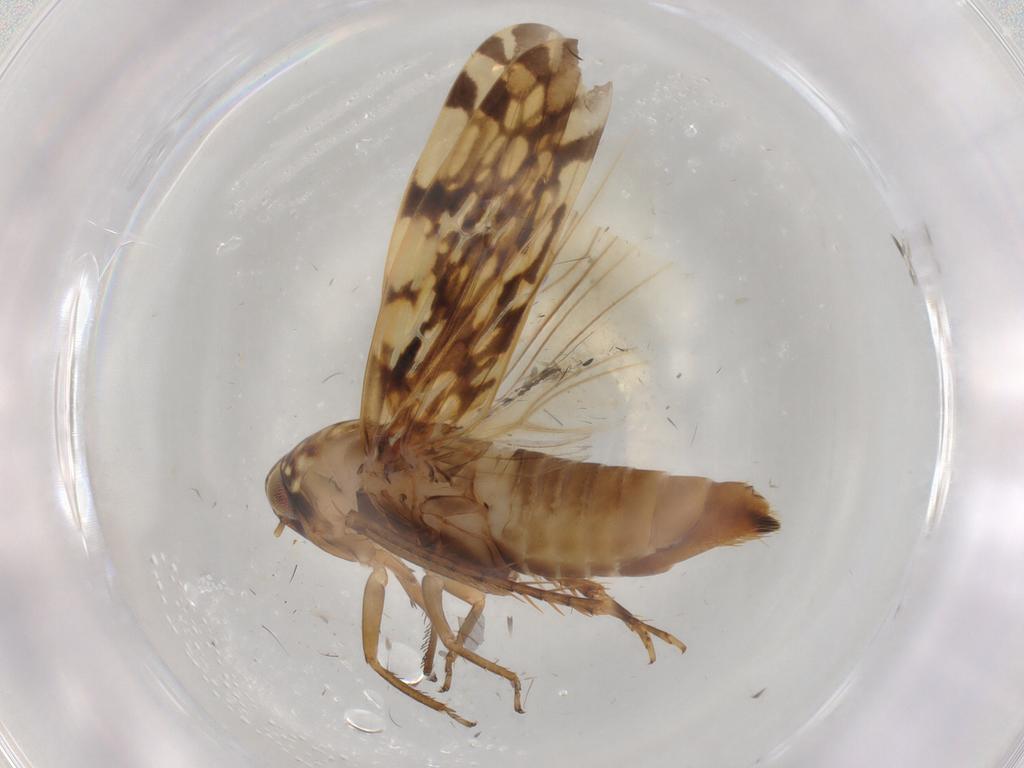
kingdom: Animalia
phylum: Arthropoda
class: Insecta
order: Hemiptera
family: Cicadellidae
